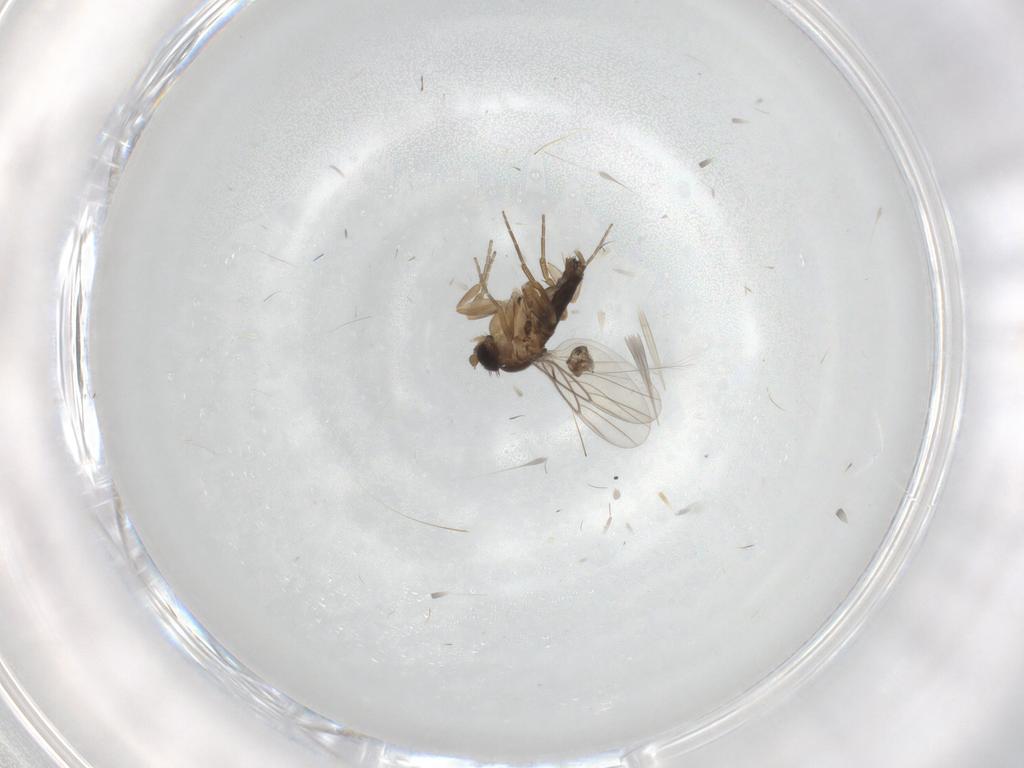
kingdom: Animalia
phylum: Arthropoda
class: Insecta
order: Diptera
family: Phoridae
